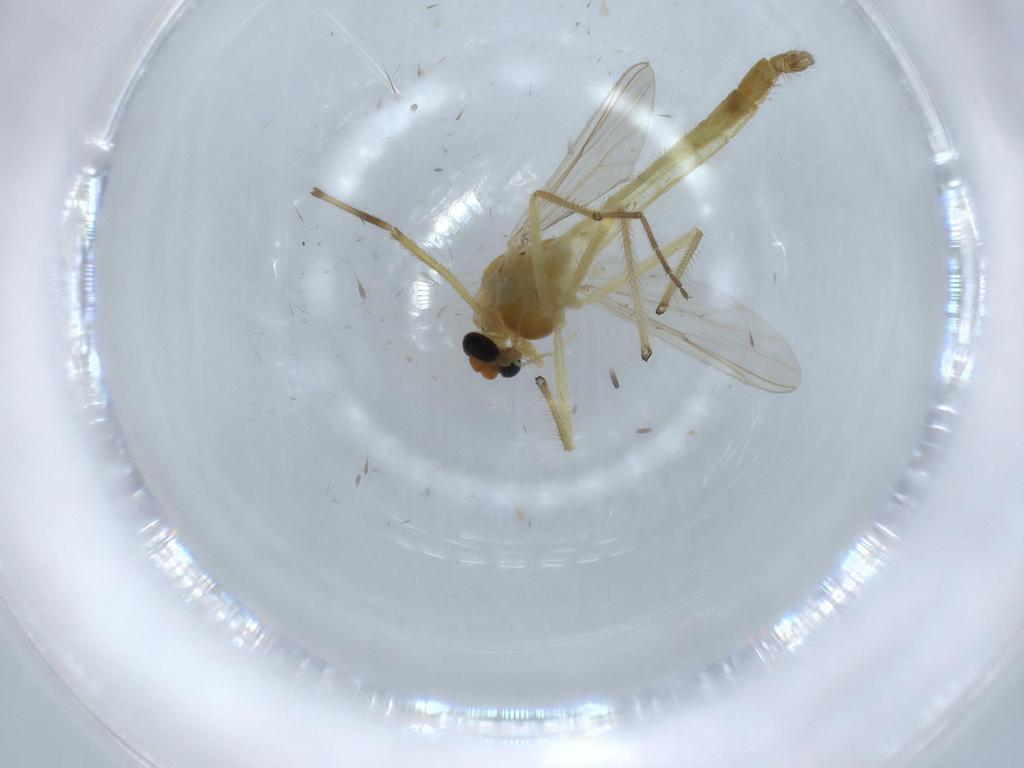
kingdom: Animalia
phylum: Arthropoda
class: Insecta
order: Diptera
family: Chironomidae
